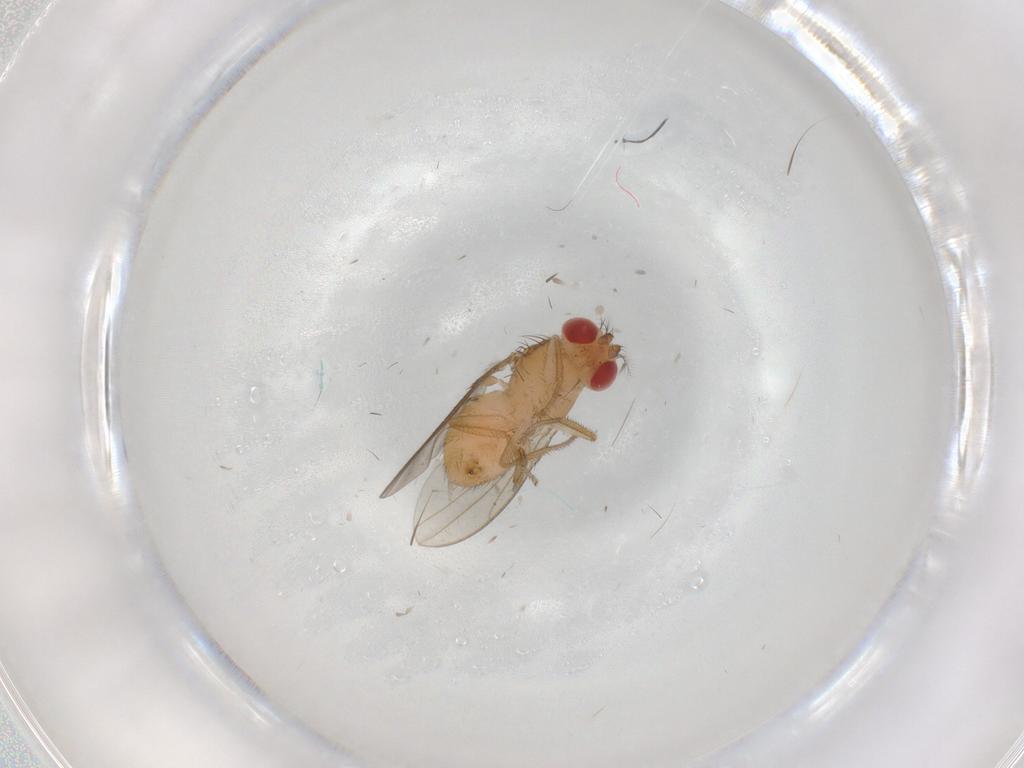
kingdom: Animalia
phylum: Arthropoda
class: Insecta
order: Diptera
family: Drosophilidae
